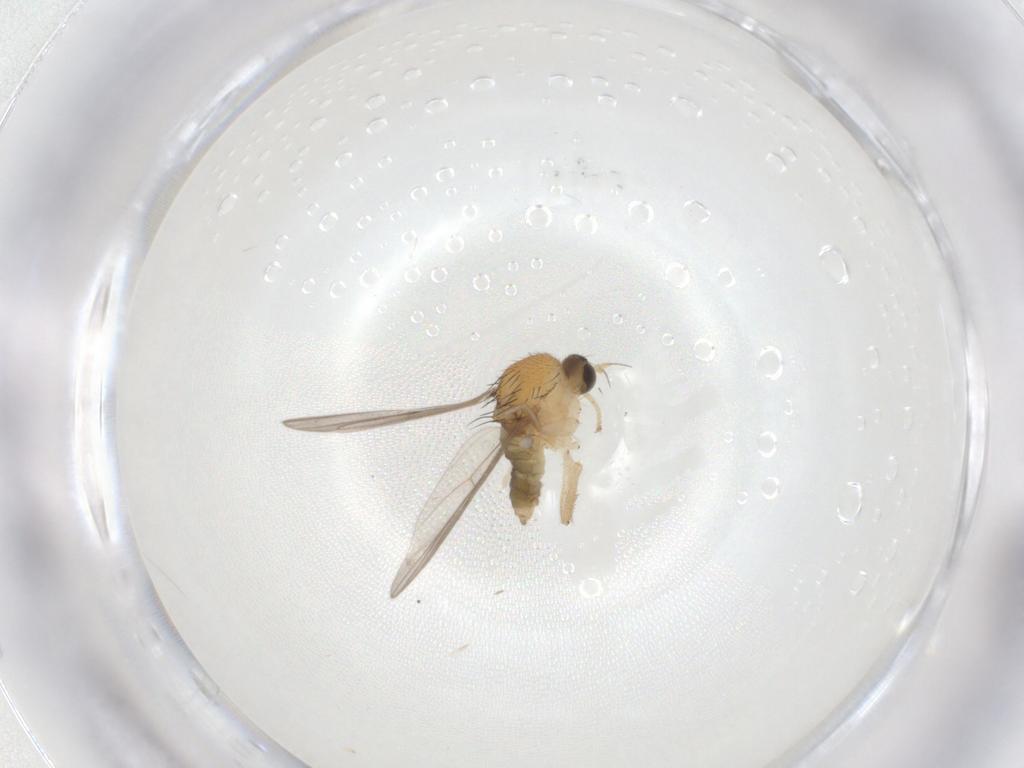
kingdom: Animalia
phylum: Arthropoda
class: Insecta
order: Diptera
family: Hybotidae
